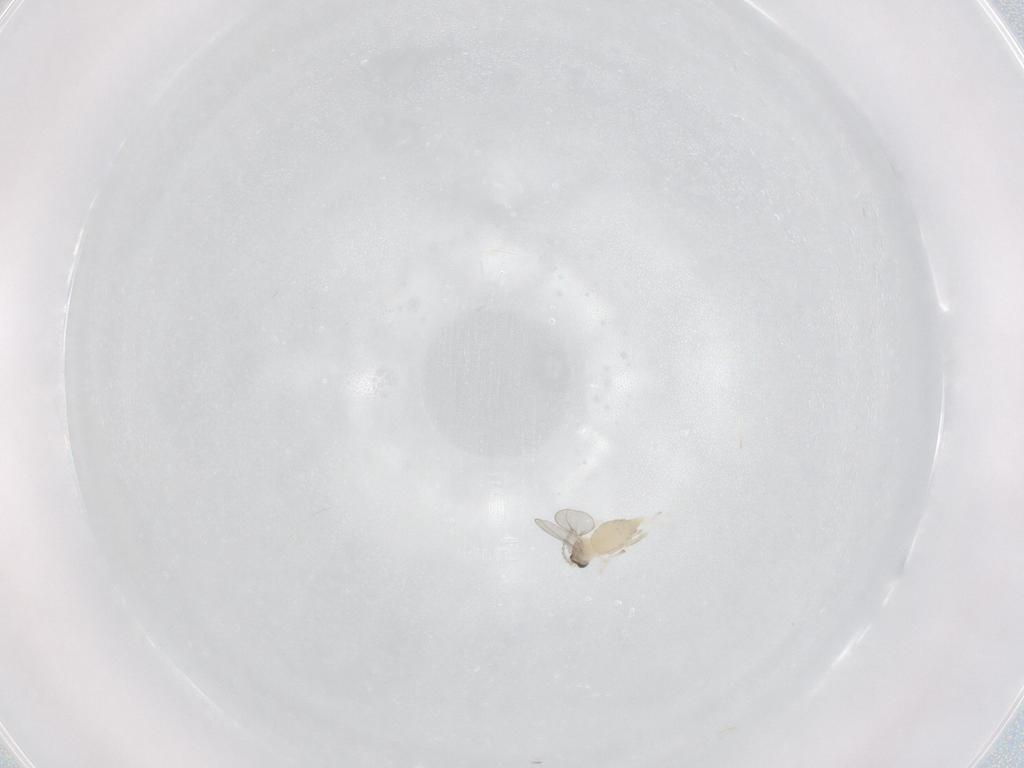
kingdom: Animalia
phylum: Arthropoda
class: Insecta
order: Diptera
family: Cecidomyiidae
